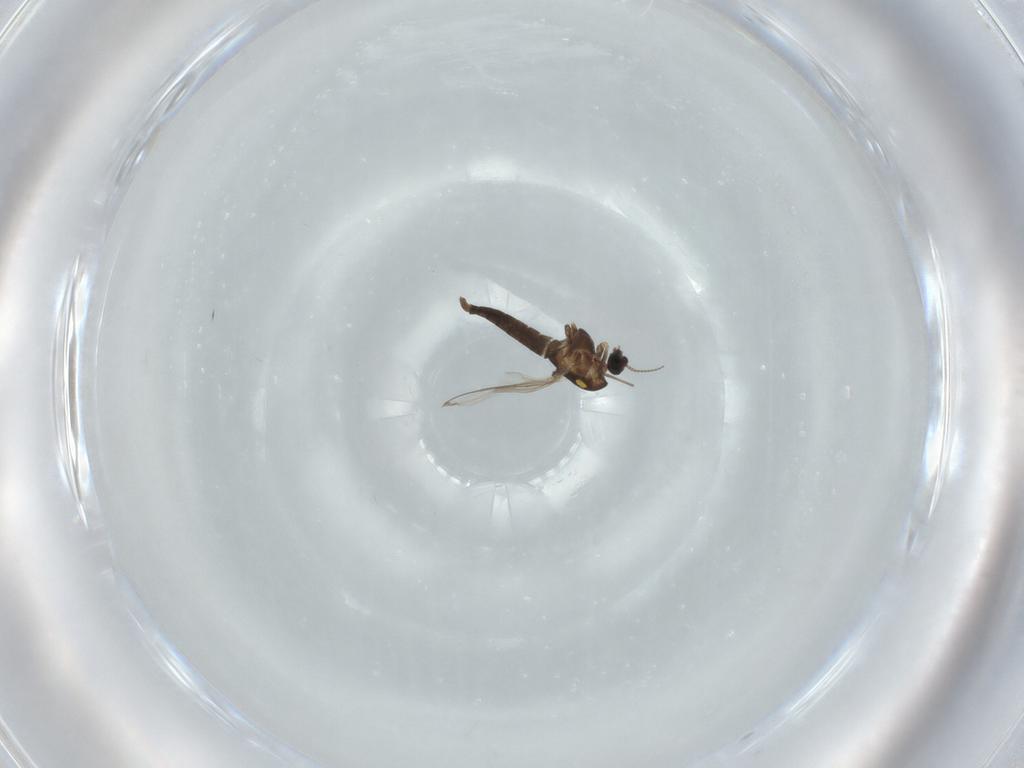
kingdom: Animalia
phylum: Arthropoda
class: Insecta
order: Diptera
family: Chironomidae
